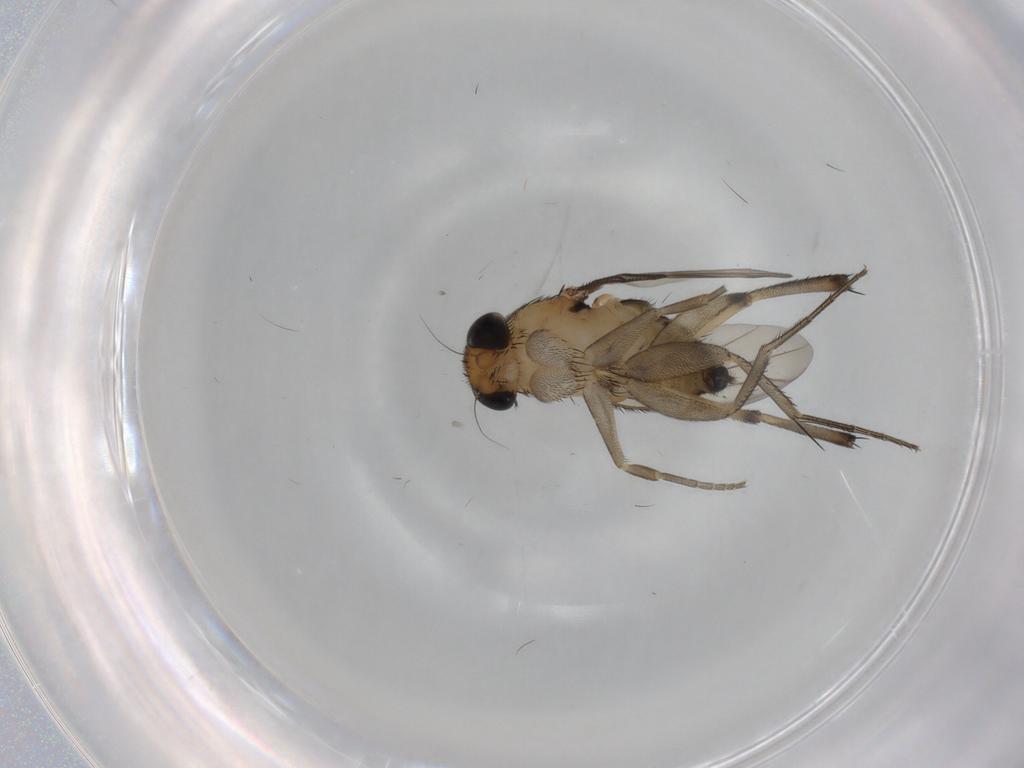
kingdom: Animalia
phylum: Arthropoda
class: Insecta
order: Diptera
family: Phoridae
